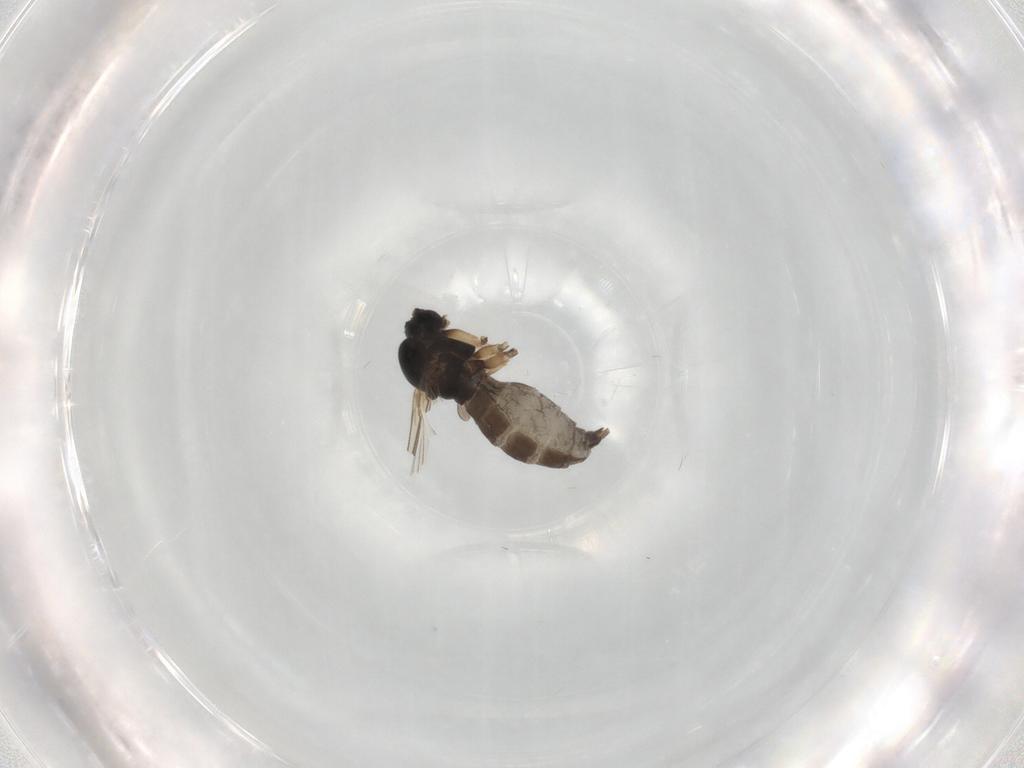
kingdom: Animalia
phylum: Arthropoda
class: Insecta
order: Diptera
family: Sciaridae
